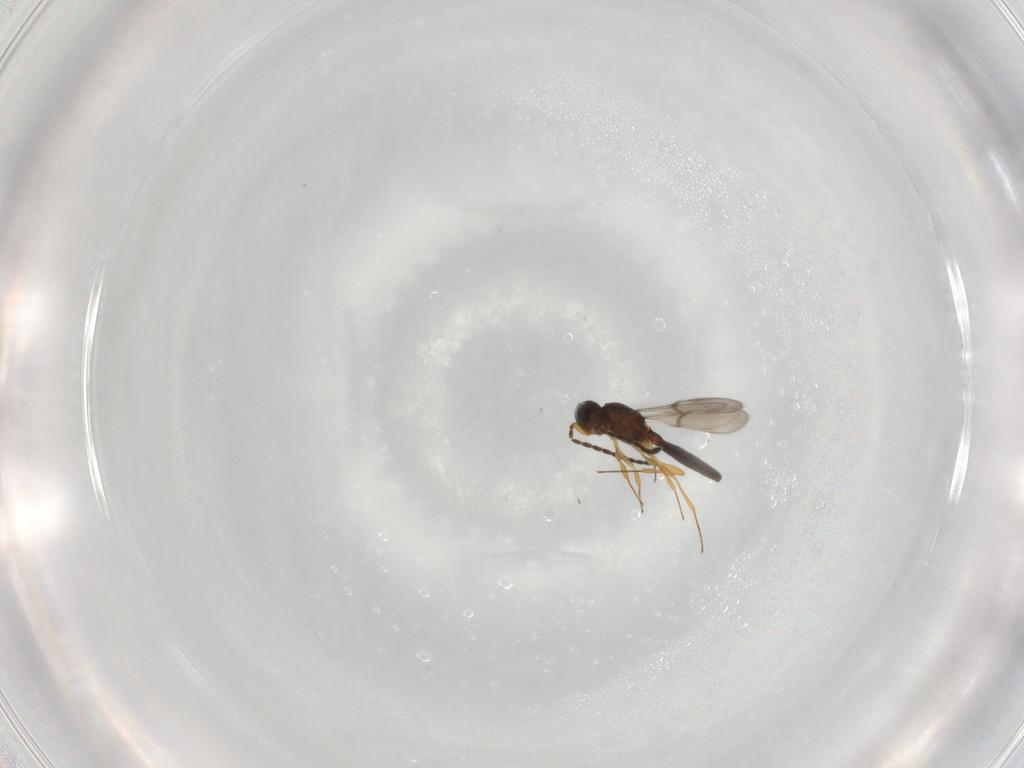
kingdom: Animalia
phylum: Arthropoda
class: Insecta
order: Hymenoptera
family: Scelionidae
